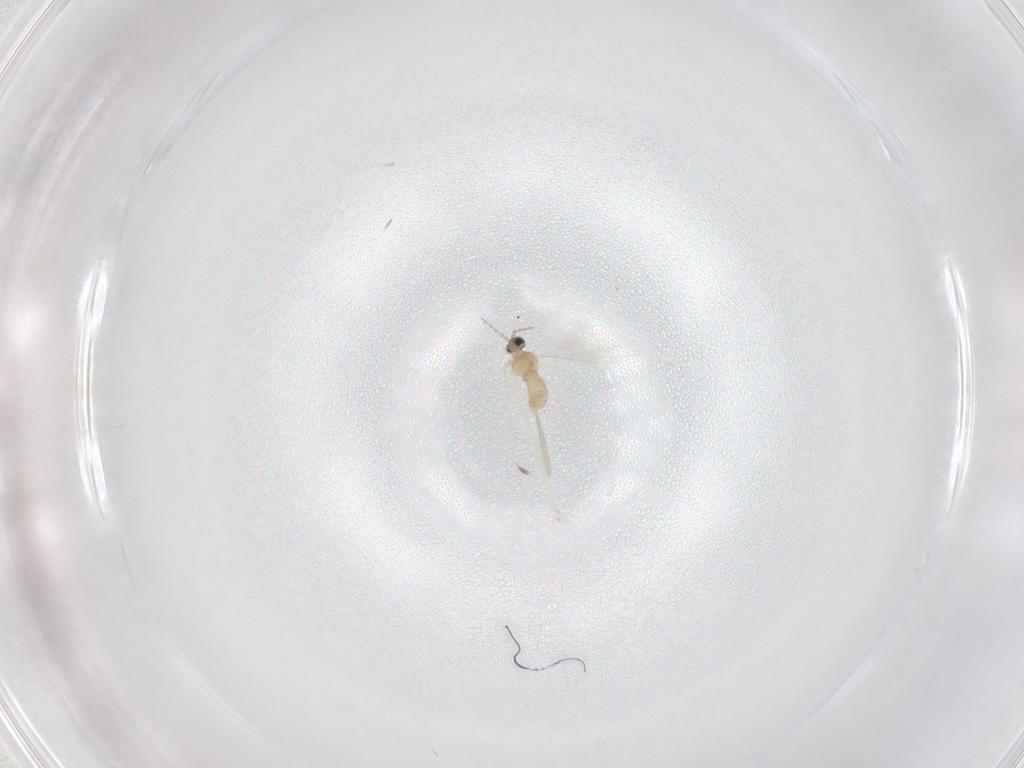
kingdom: Animalia
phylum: Arthropoda
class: Insecta
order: Diptera
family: Cecidomyiidae
